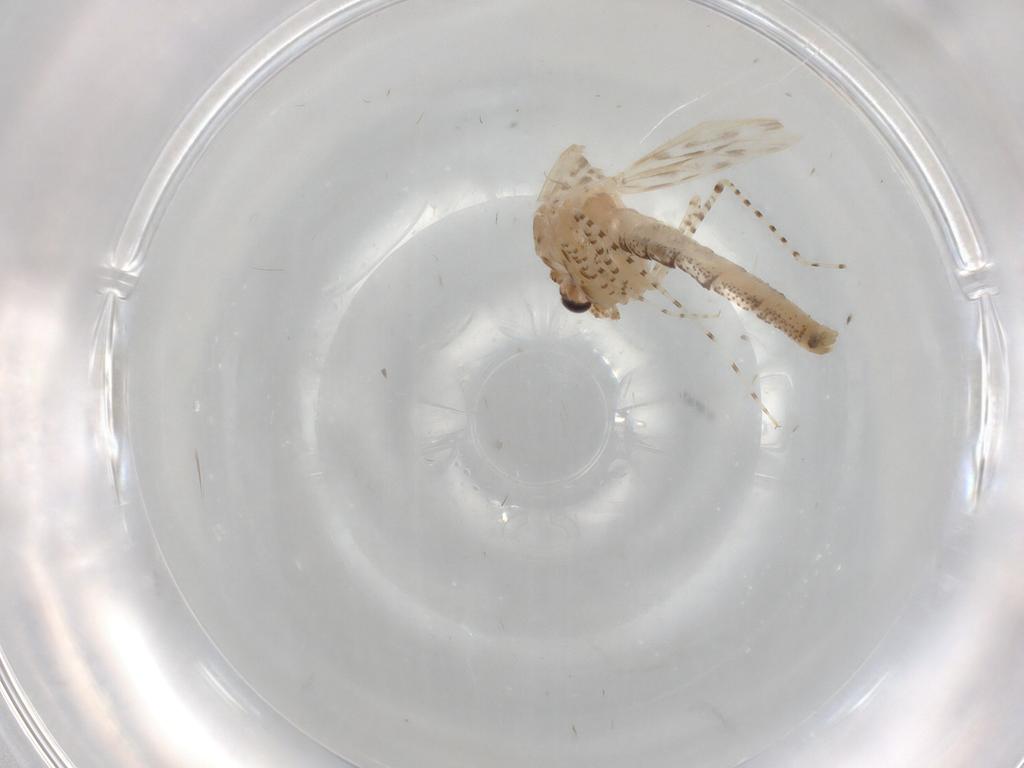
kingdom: Animalia
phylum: Arthropoda
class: Insecta
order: Diptera
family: Chaoboridae
